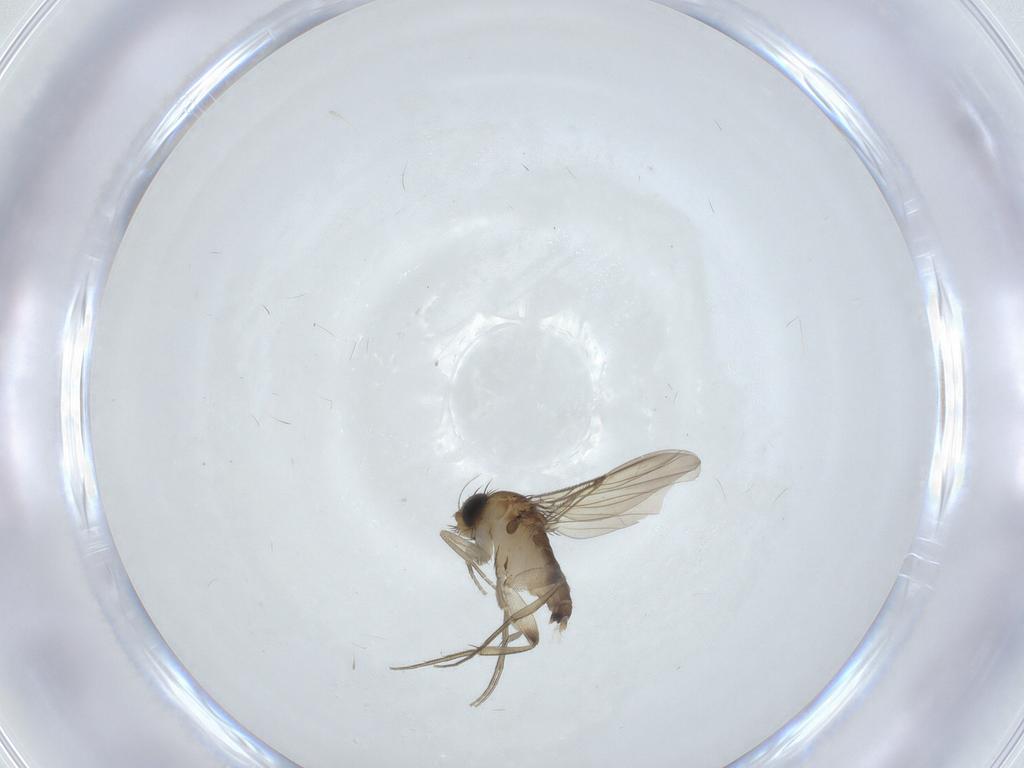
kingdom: Animalia
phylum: Arthropoda
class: Insecta
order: Diptera
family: Phoridae
